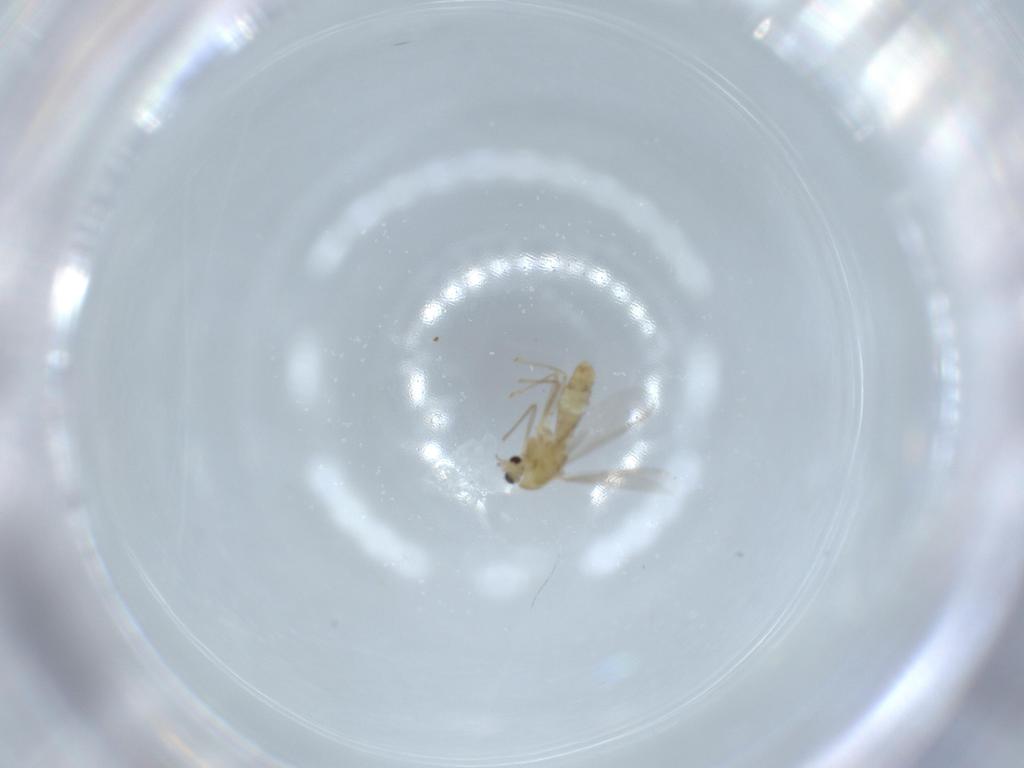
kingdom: Animalia
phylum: Arthropoda
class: Insecta
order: Diptera
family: Chironomidae
